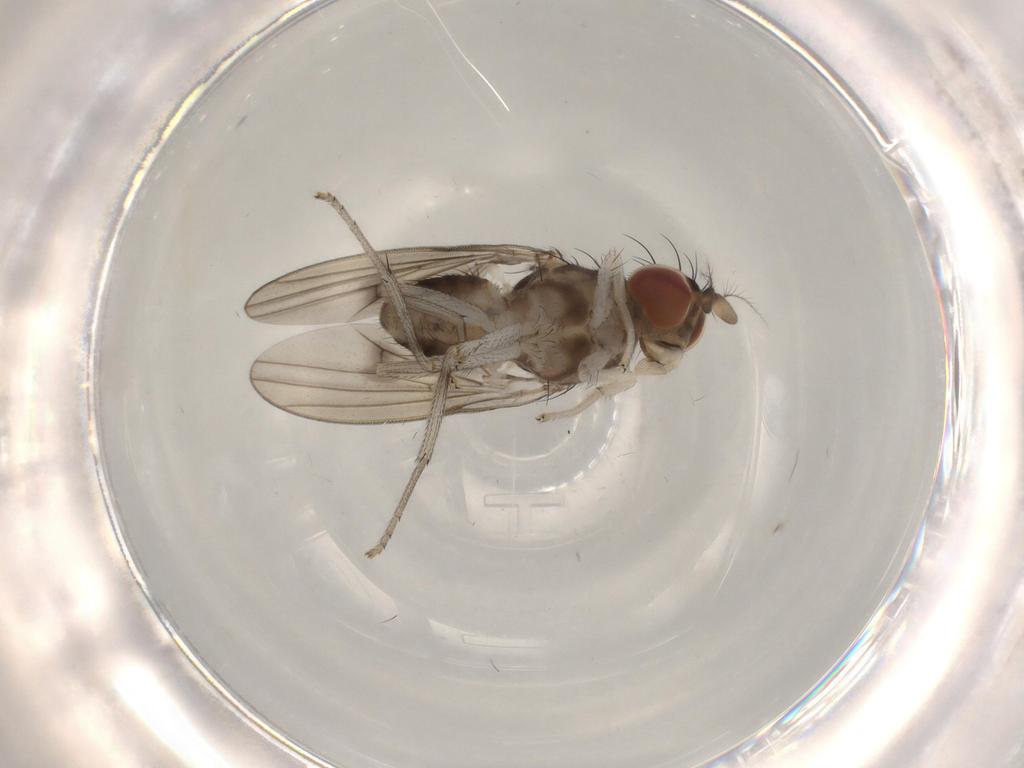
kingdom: Animalia
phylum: Arthropoda
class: Insecta
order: Diptera
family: Lauxaniidae
